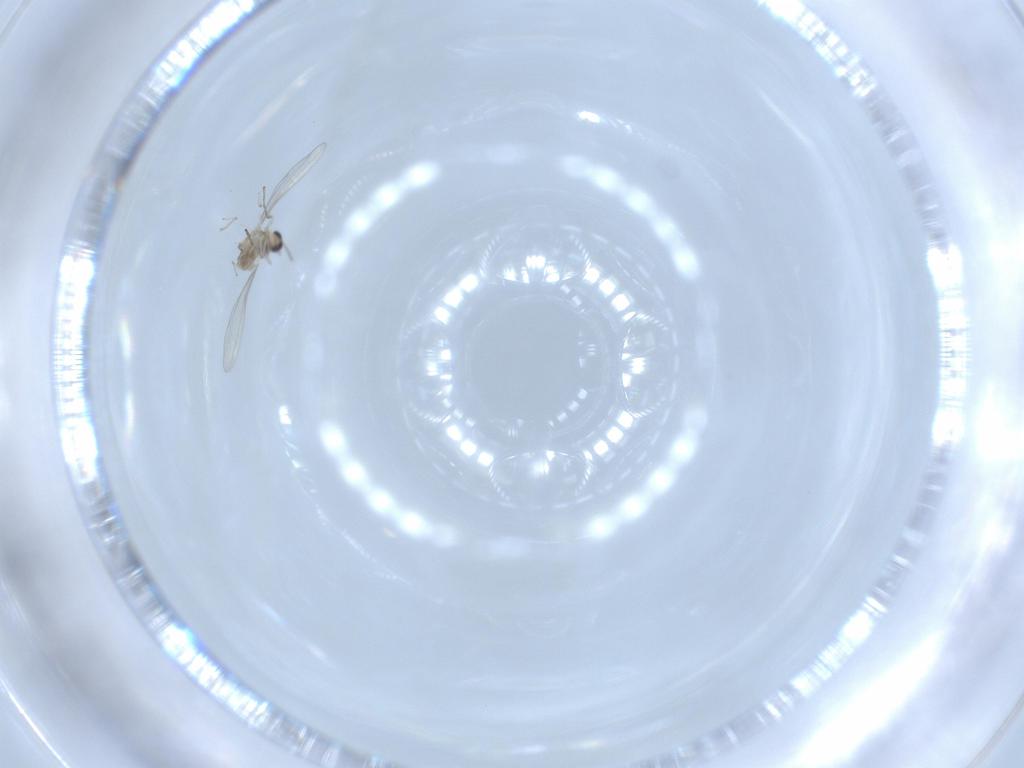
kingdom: Animalia
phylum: Arthropoda
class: Insecta
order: Diptera
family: Cecidomyiidae
